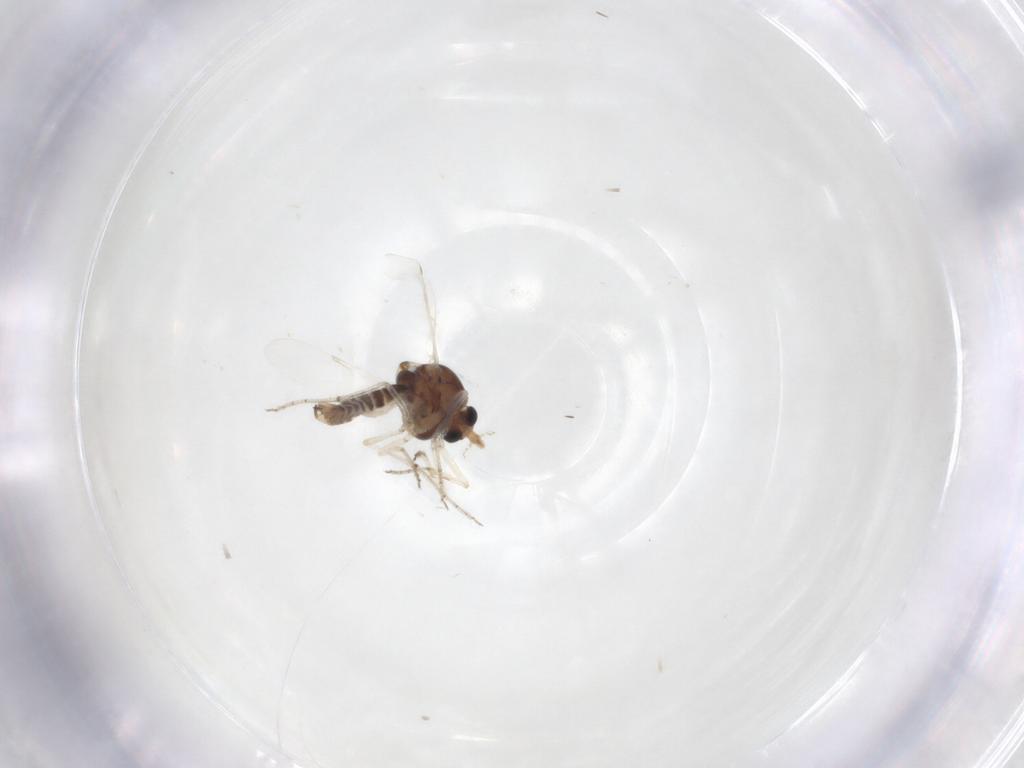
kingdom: Animalia
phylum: Arthropoda
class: Insecta
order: Diptera
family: Ceratopogonidae
